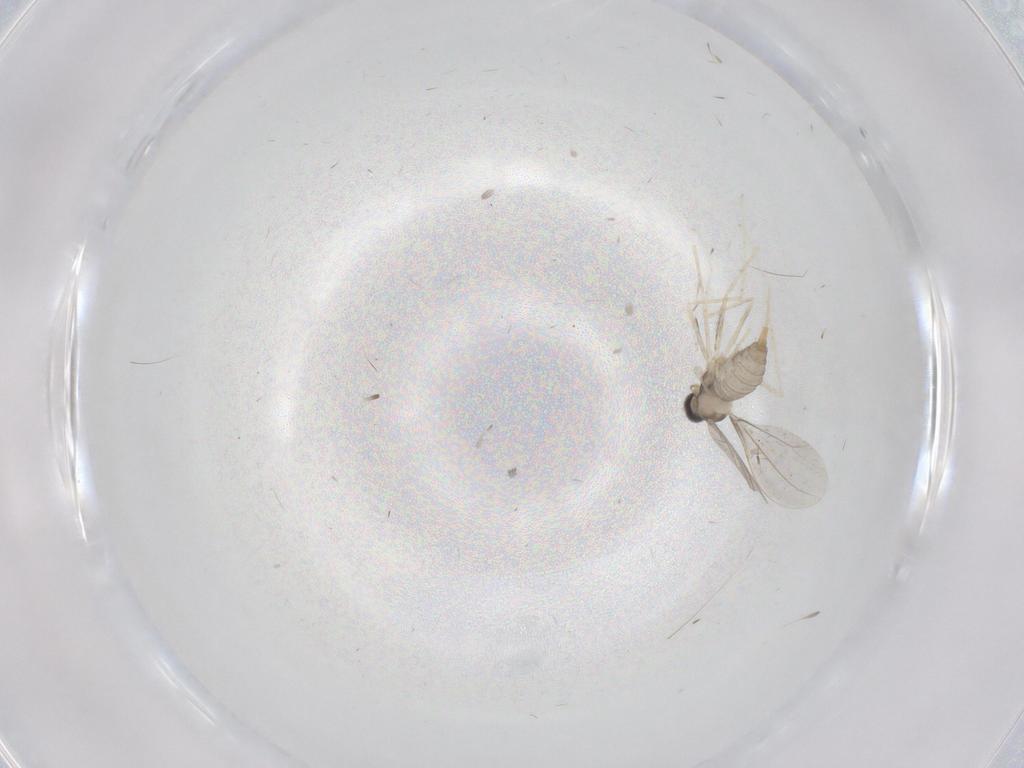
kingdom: Animalia
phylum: Arthropoda
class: Insecta
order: Diptera
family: Cecidomyiidae
